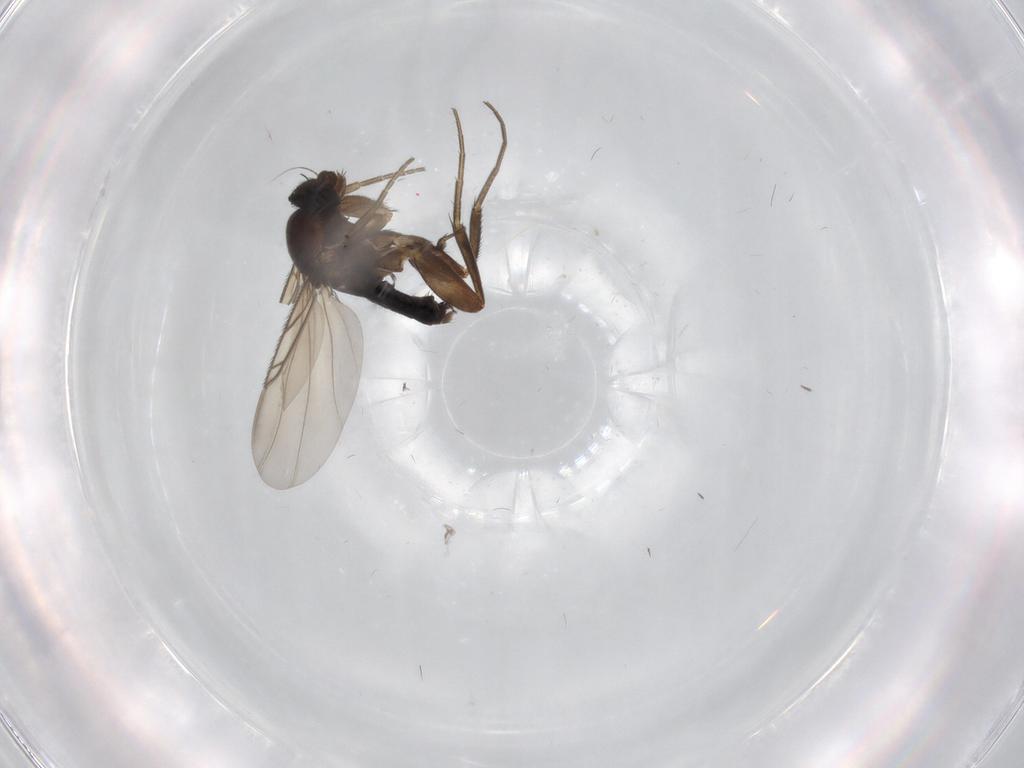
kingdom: Animalia
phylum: Arthropoda
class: Insecta
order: Diptera
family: Phoridae
